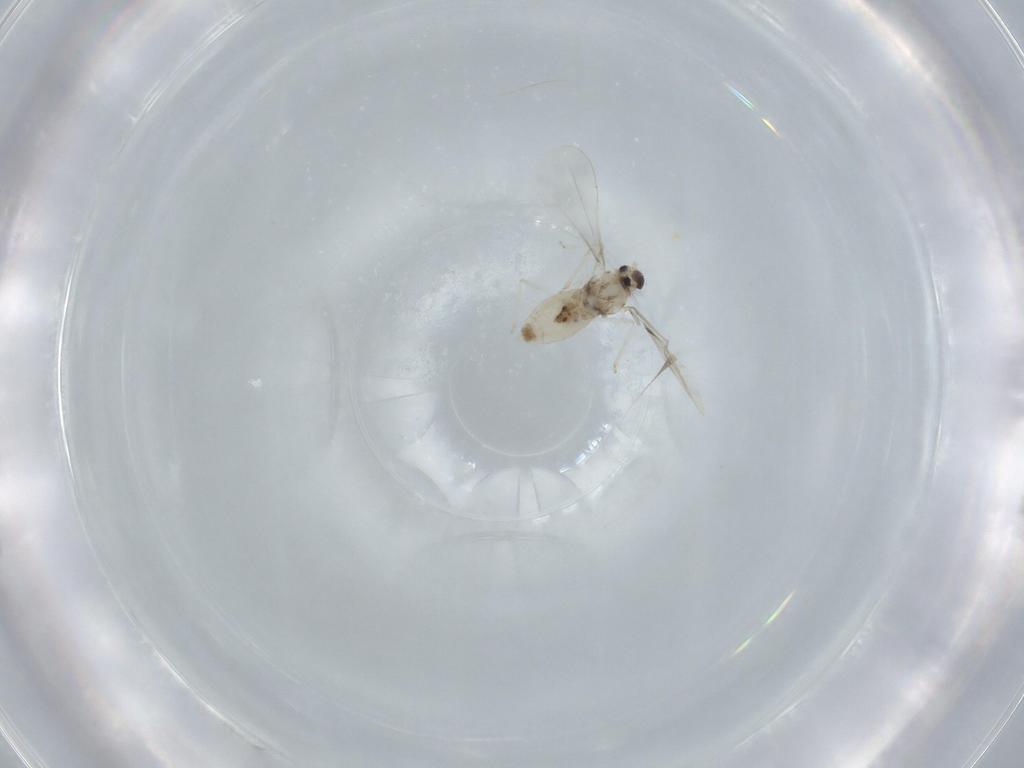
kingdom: Animalia
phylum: Arthropoda
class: Insecta
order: Diptera
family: Cecidomyiidae
